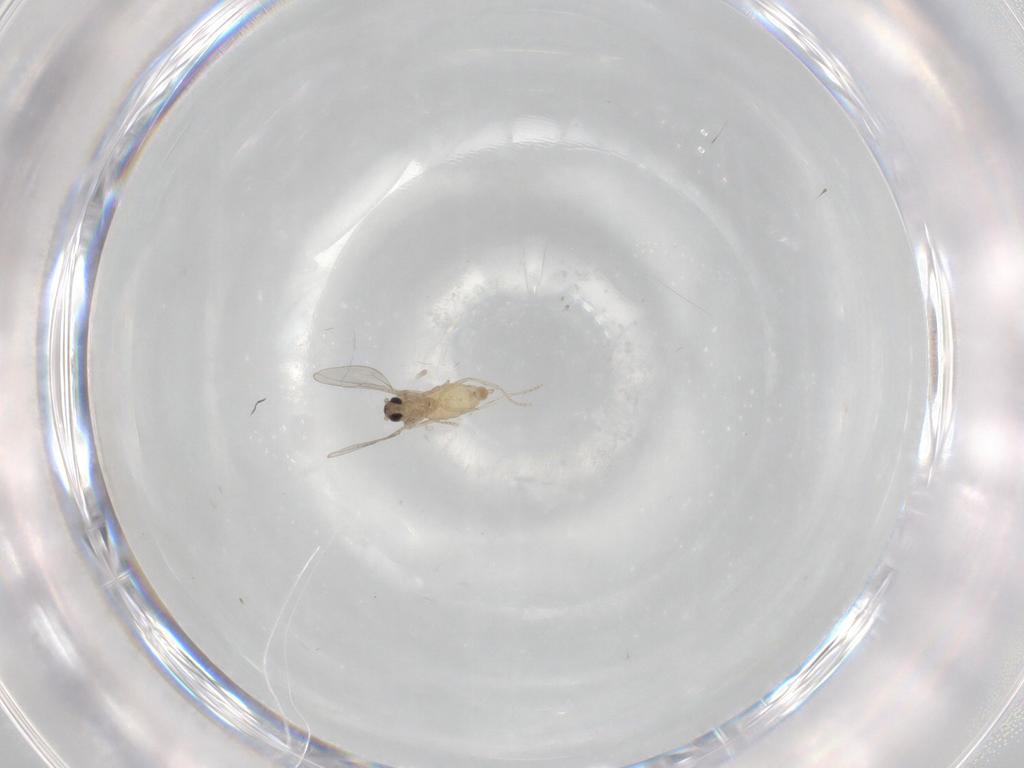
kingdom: Animalia
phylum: Arthropoda
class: Insecta
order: Diptera
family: Cecidomyiidae
